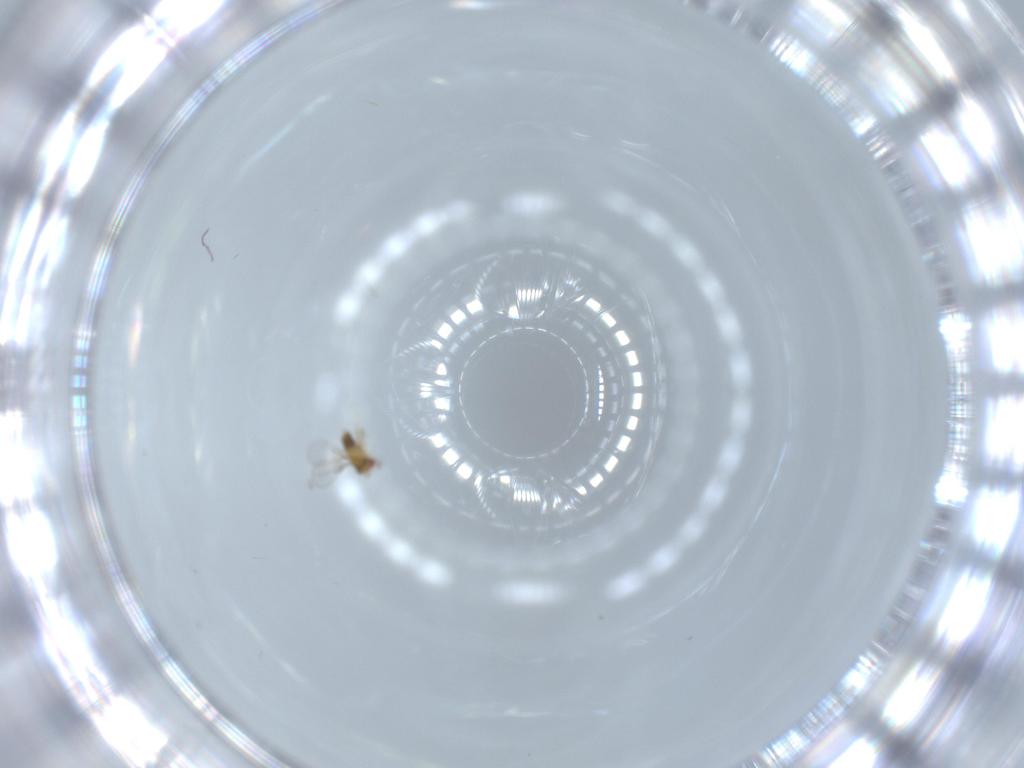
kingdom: Animalia
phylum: Arthropoda
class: Insecta
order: Hymenoptera
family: Trichogrammatidae
